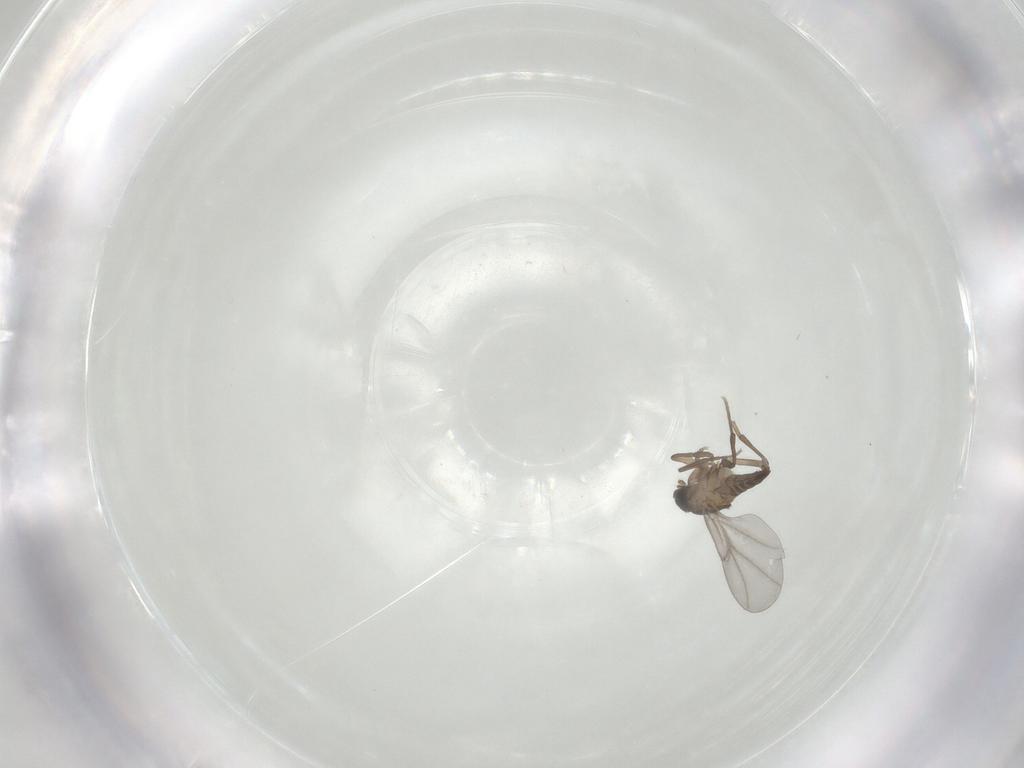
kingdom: Animalia
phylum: Arthropoda
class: Insecta
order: Diptera
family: Phoridae
